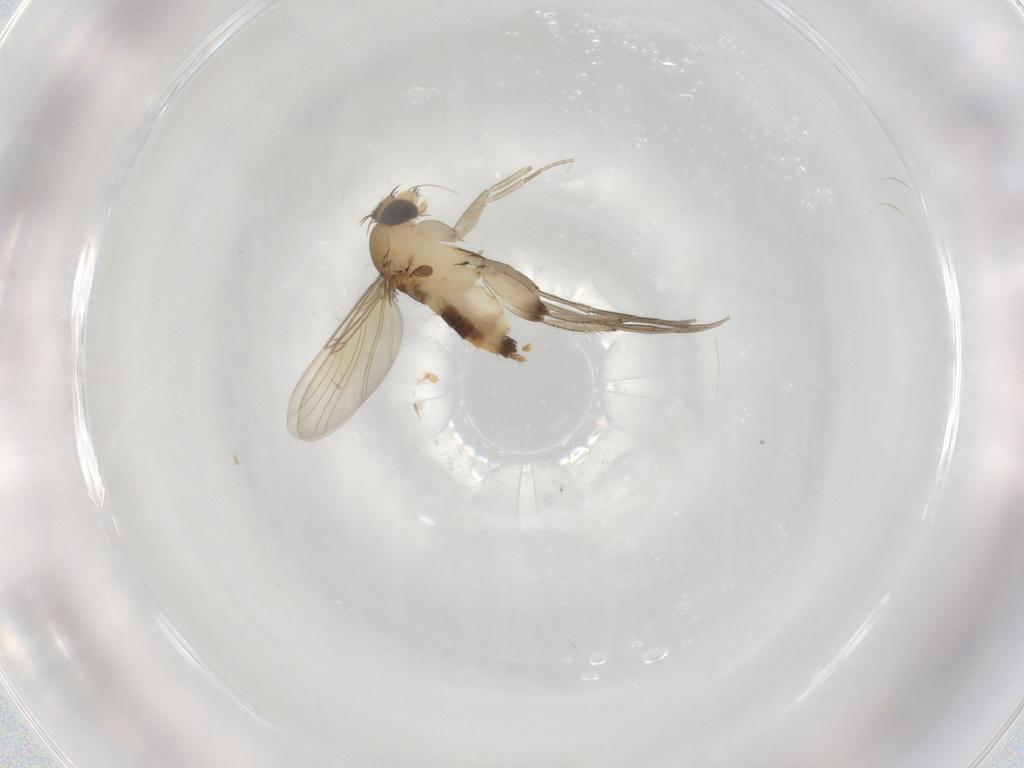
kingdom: Animalia
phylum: Arthropoda
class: Insecta
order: Diptera
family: Phoridae
